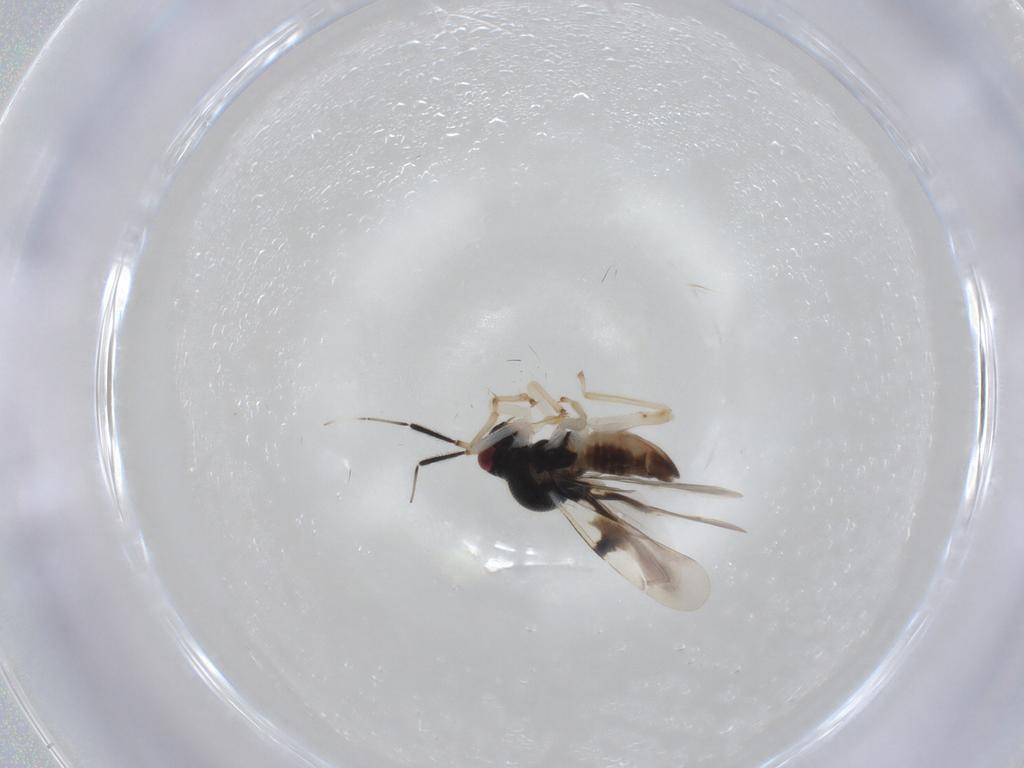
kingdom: Animalia
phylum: Arthropoda
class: Insecta
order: Hemiptera
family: Miridae
